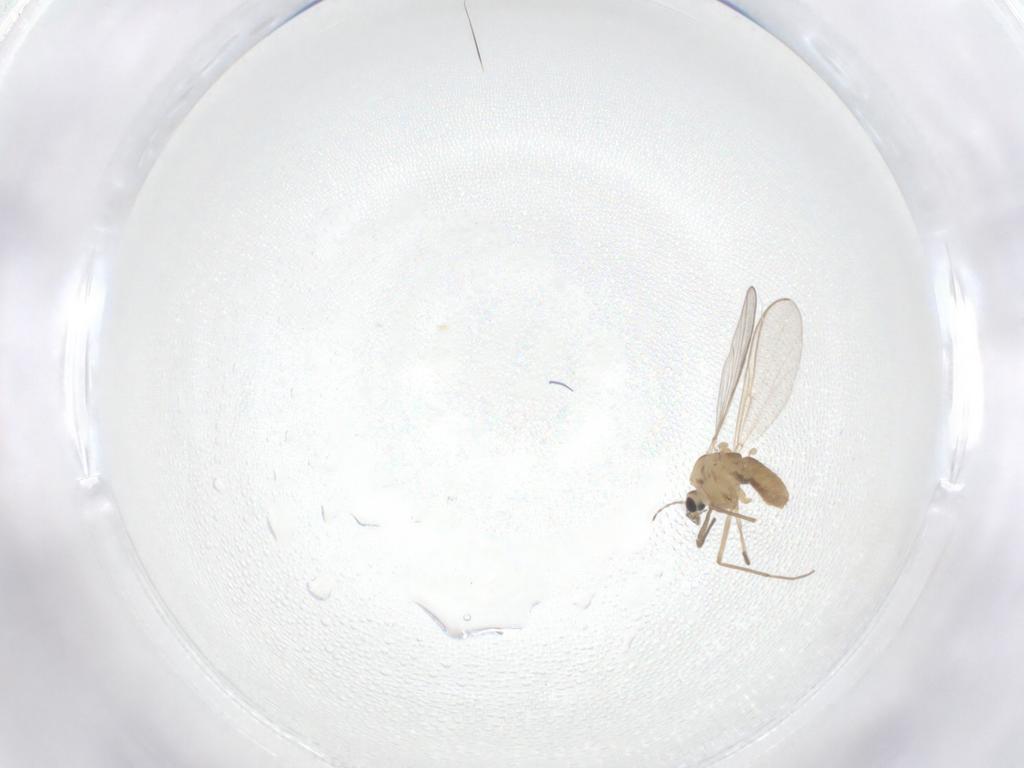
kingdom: Animalia
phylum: Arthropoda
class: Insecta
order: Diptera
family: Chironomidae
